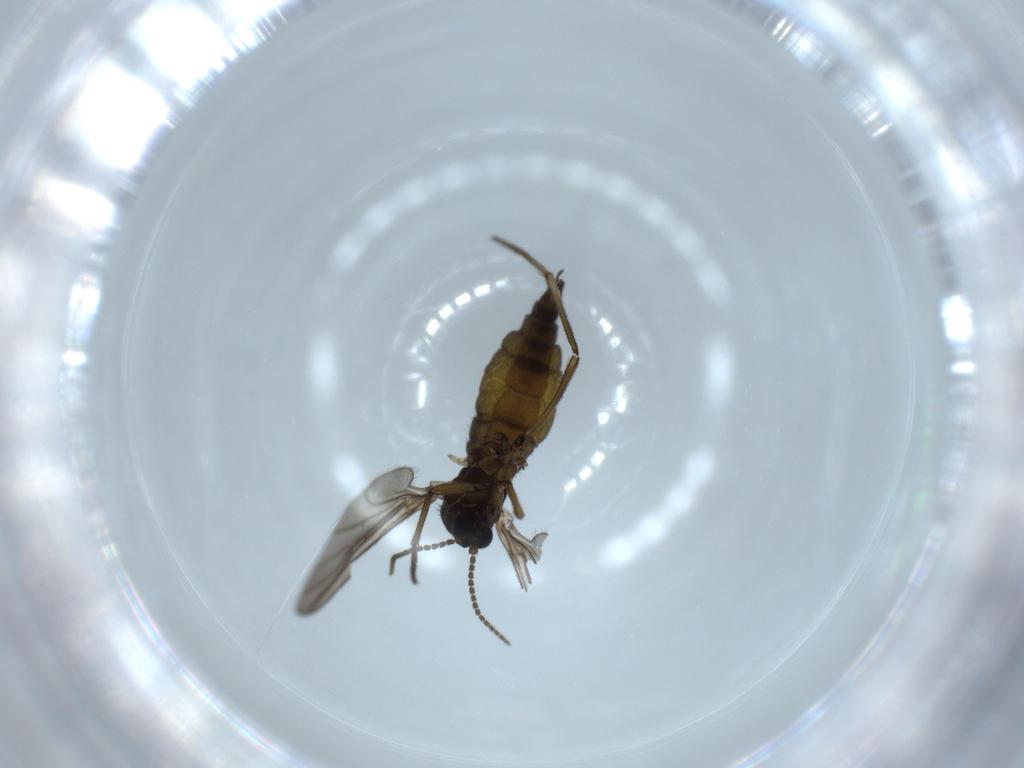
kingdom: Animalia
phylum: Arthropoda
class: Insecta
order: Diptera
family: Sciaridae
